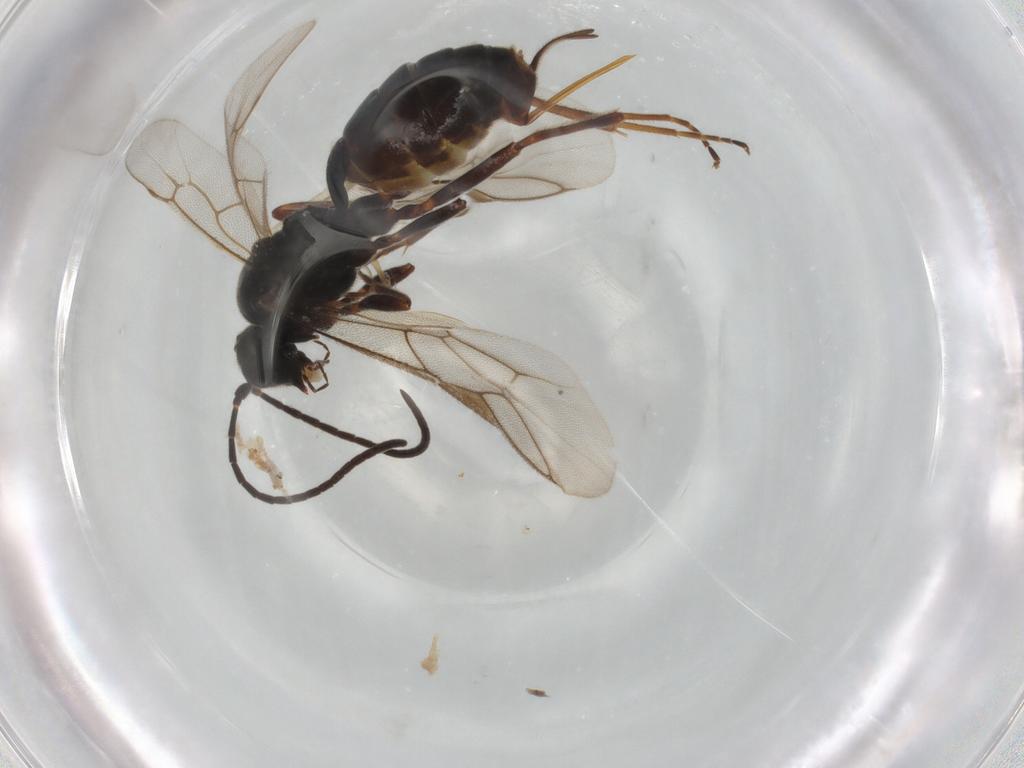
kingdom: Animalia
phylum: Arthropoda
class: Insecta
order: Hymenoptera
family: Ichneumonidae
